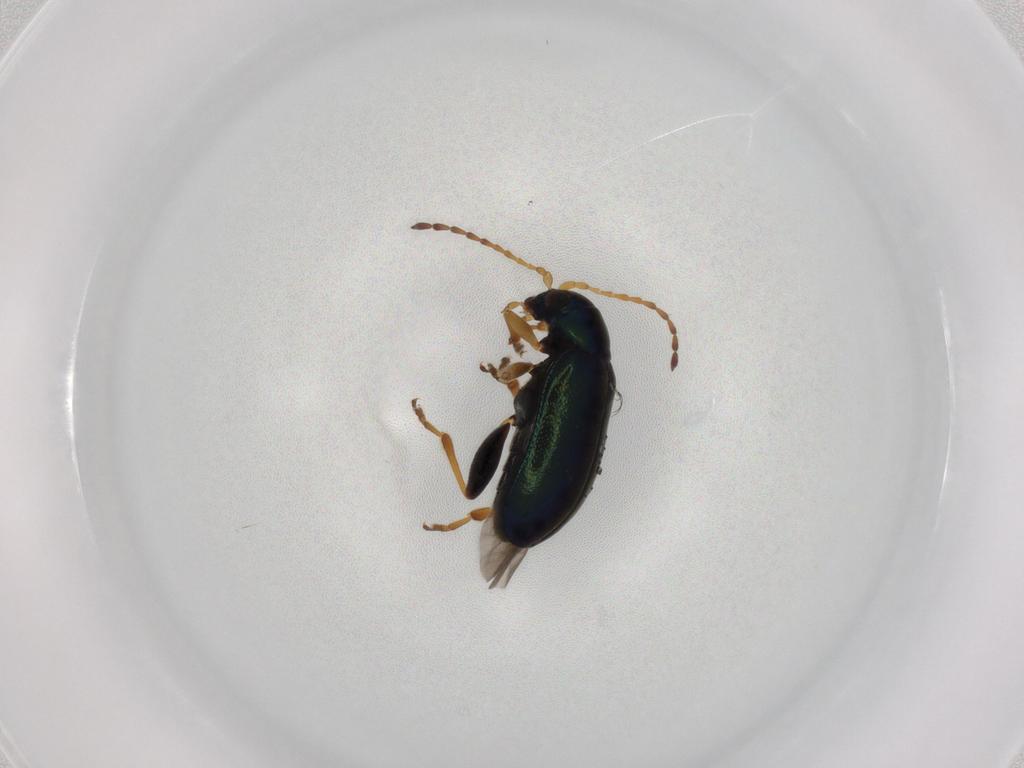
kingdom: Animalia
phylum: Arthropoda
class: Insecta
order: Coleoptera
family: Chrysomelidae
